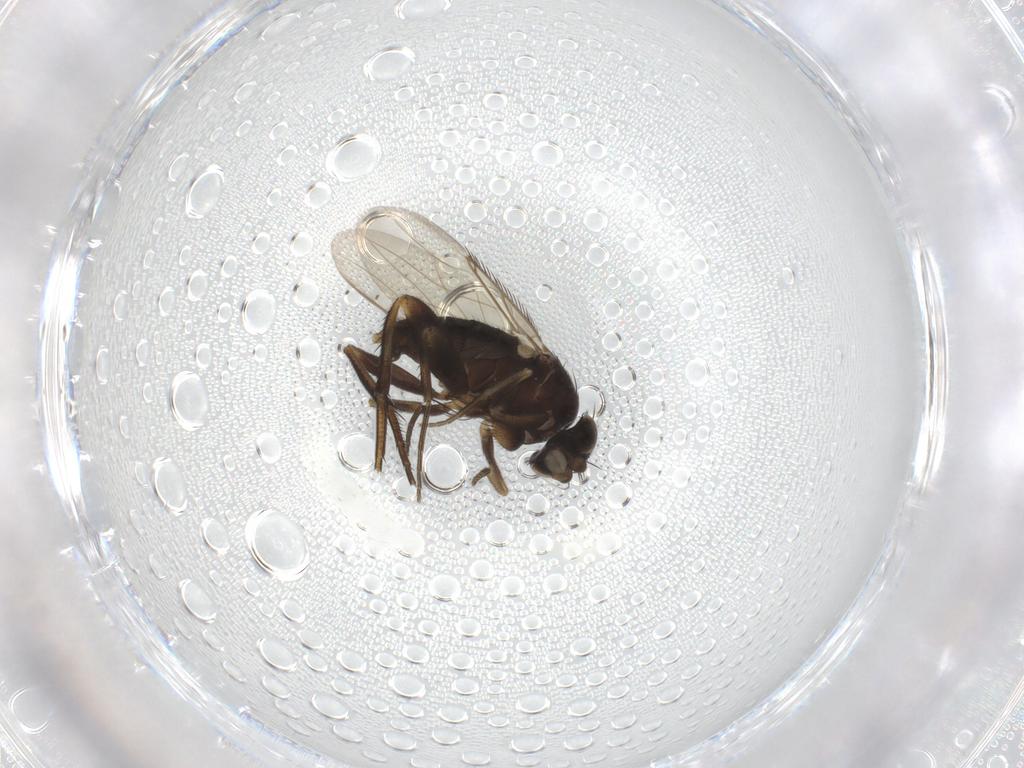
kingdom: Animalia
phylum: Arthropoda
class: Insecta
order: Diptera
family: Phoridae
